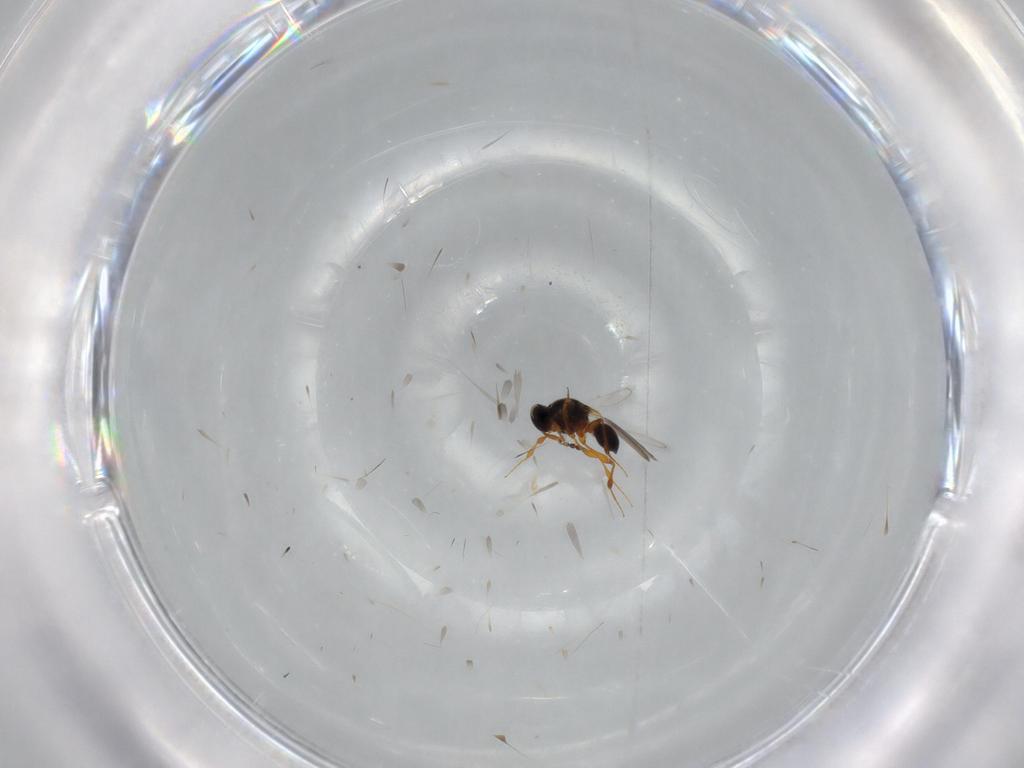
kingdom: Animalia
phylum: Arthropoda
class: Insecta
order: Hymenoptera
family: Platygastridae
